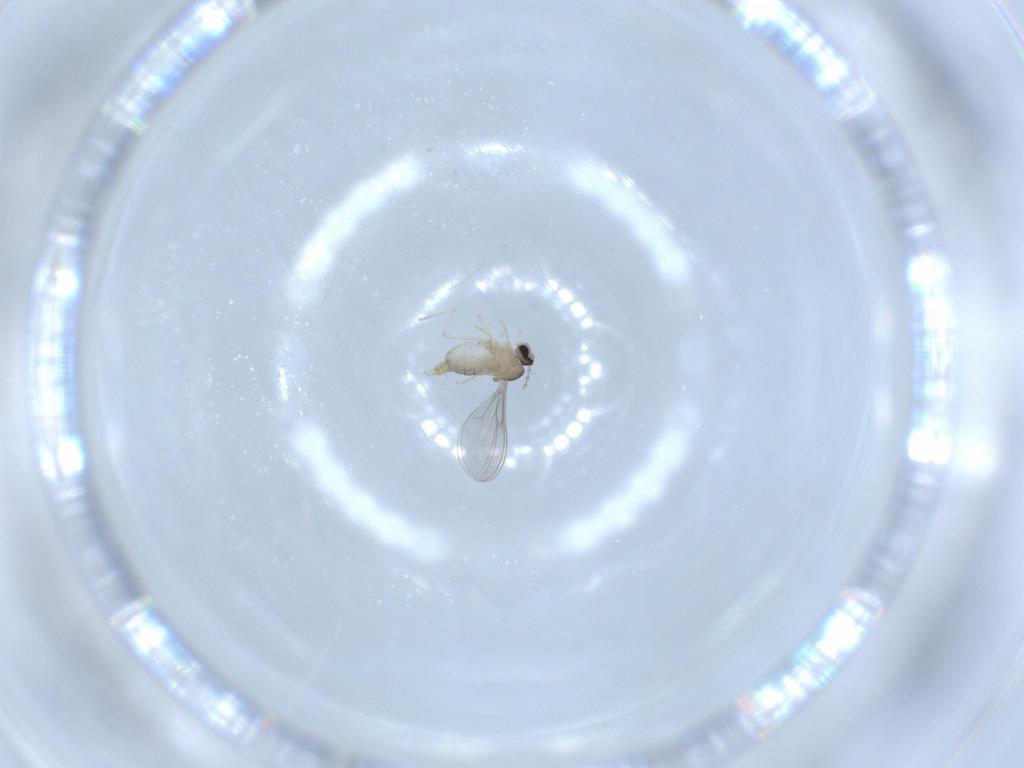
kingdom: Animalia
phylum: Arthropoda
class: Insecta
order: Diptera
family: Cecidomyiidae
